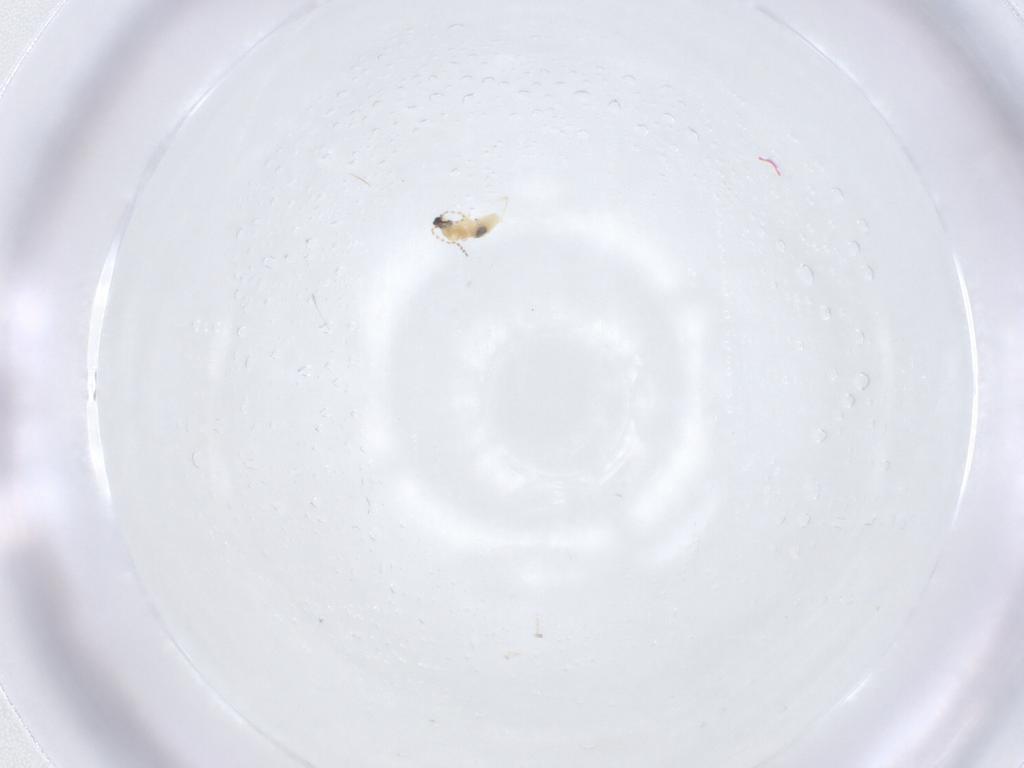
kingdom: Animalia
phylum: Arthropoda
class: Insecta
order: Diptera
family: Cecidomyiidae
